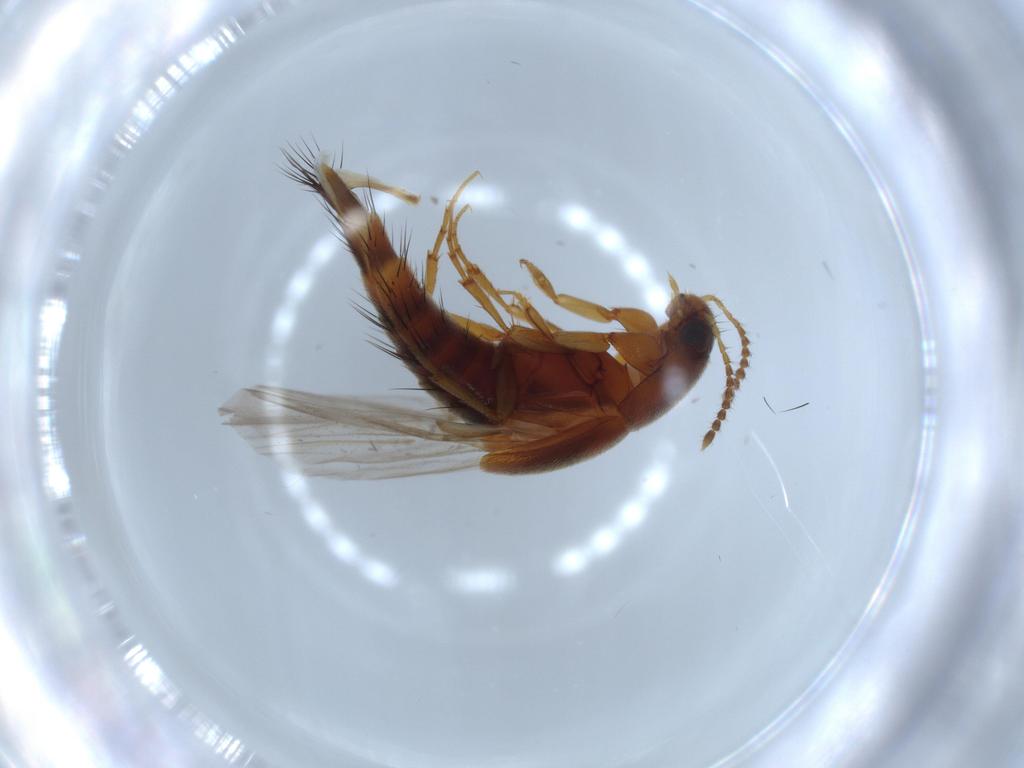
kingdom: Animalia
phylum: Arthropoda
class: Insecta
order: Coleoptera
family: Staphylinidae
